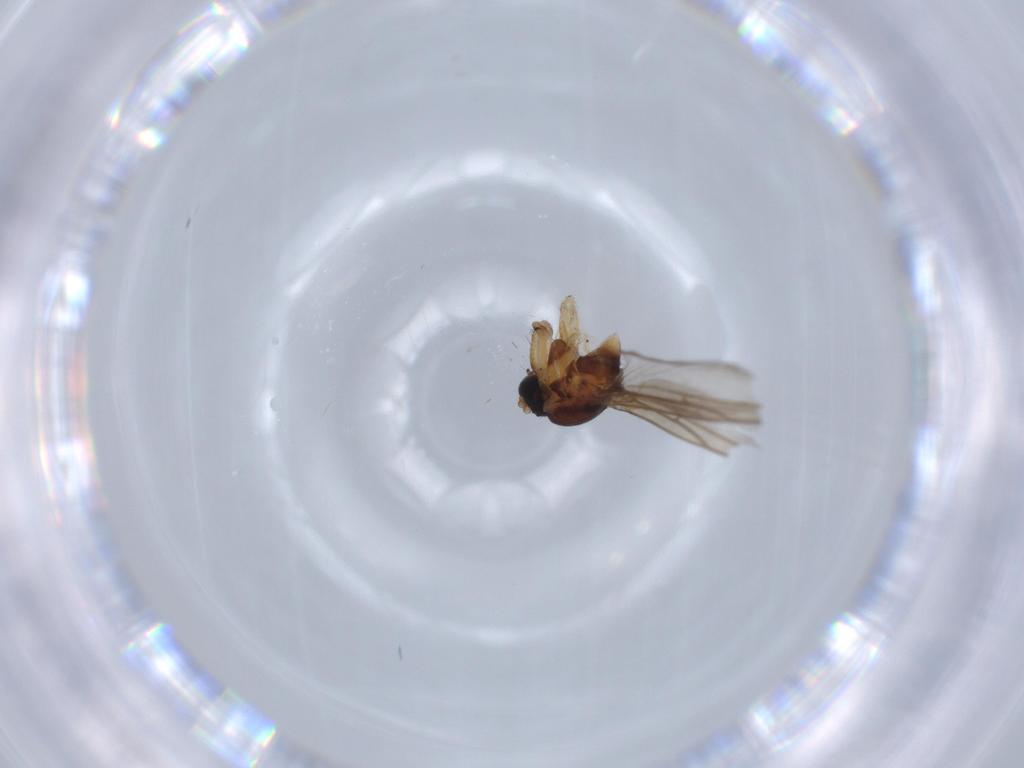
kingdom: Animalia
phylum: Arthropoda
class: Insecta
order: Diptera
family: Sciaridae
